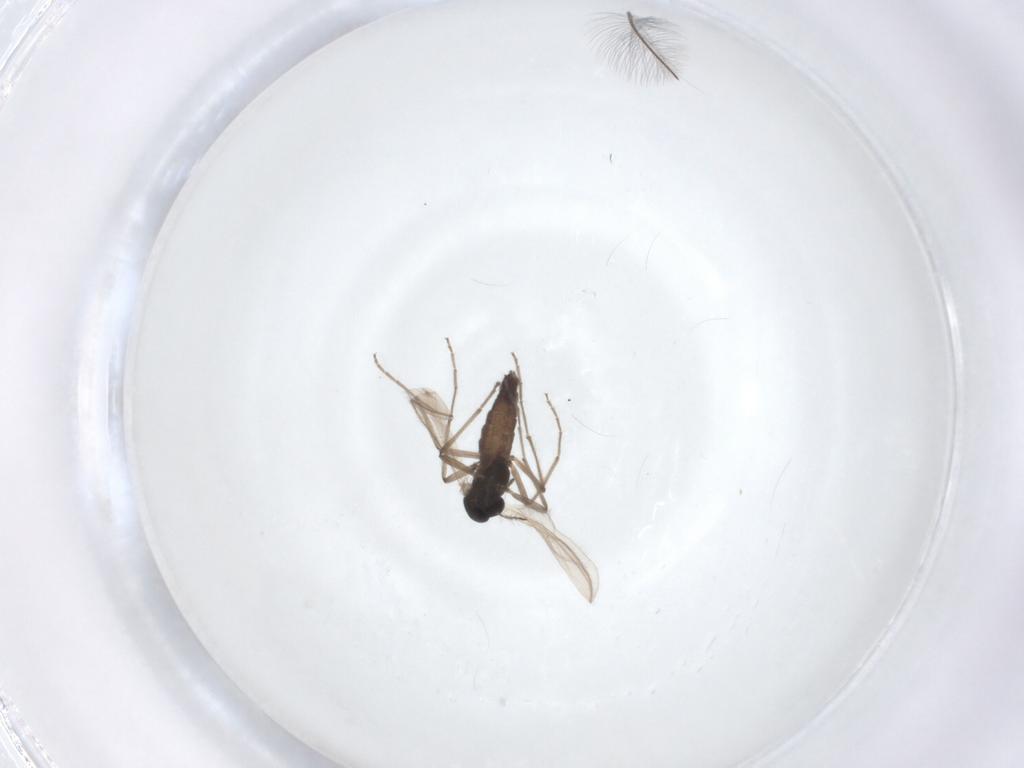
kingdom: Animalia
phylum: Arthropoda
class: Insecta
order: Diptera
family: Chironomidae
